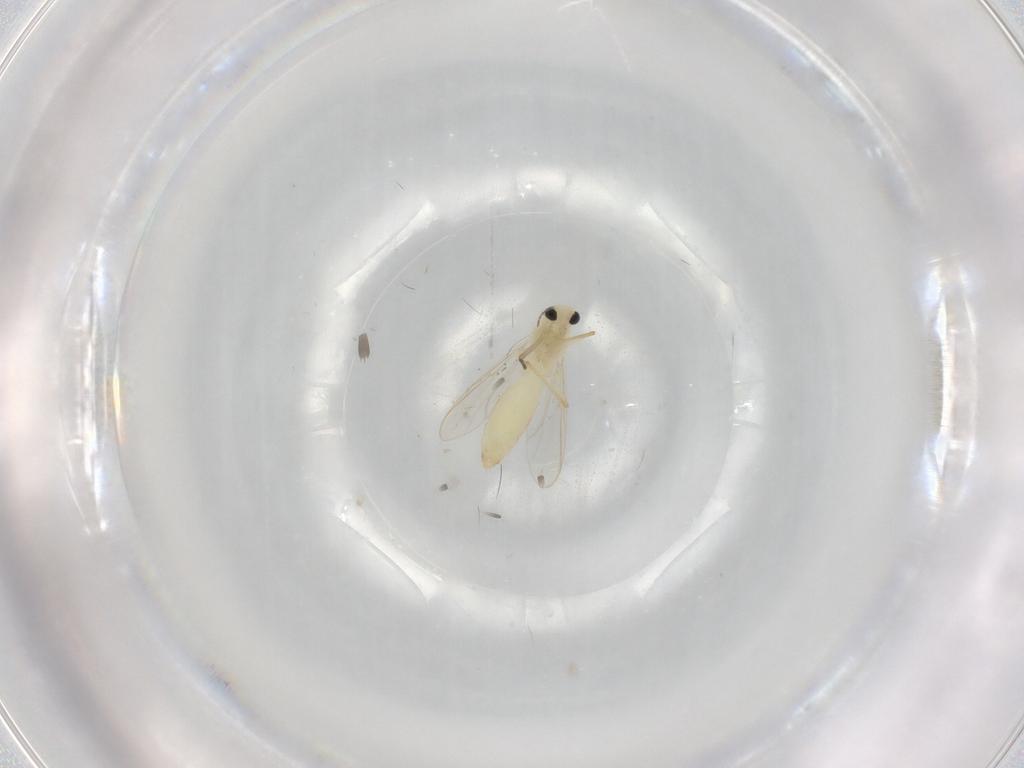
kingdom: Animalia
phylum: Arthropoda
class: Insecta
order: Diptera
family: Chironomidae
